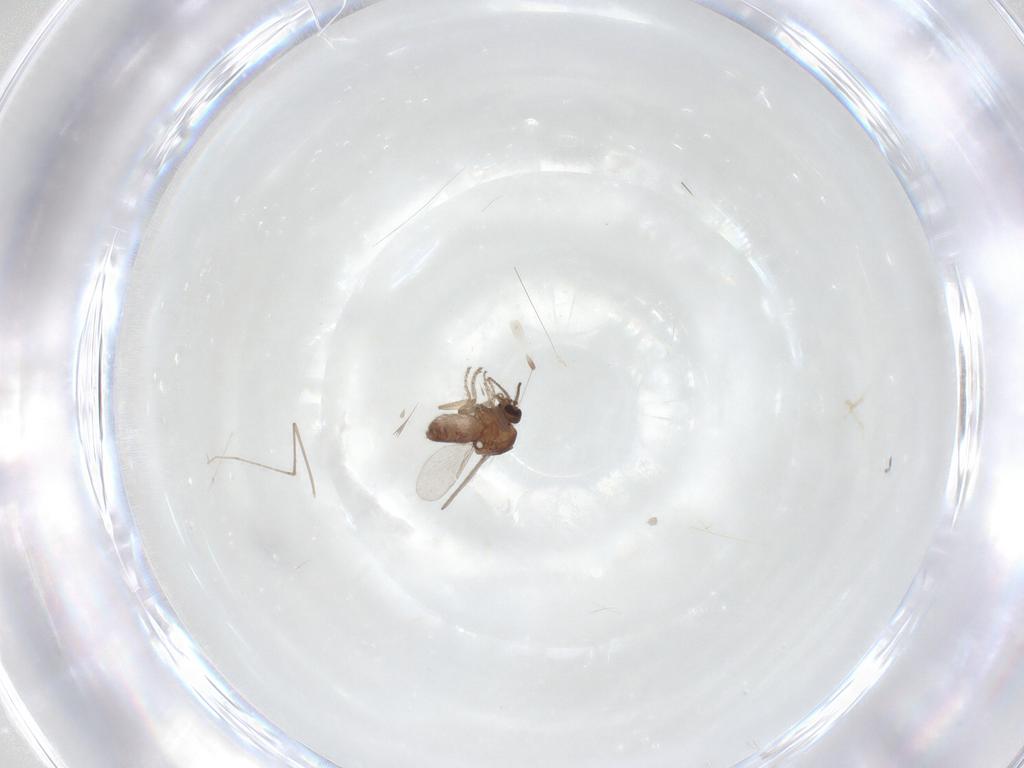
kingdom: Animalia
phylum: Arthropoda
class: Insecta
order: Diptera
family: Ceratopogonidae
